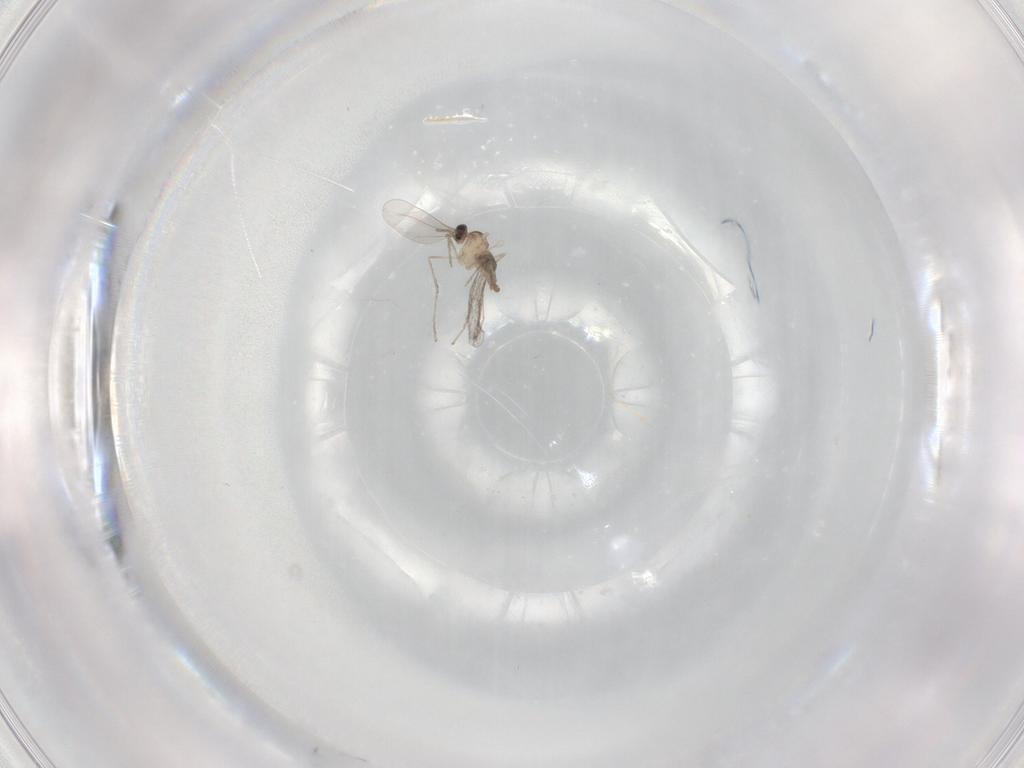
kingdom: Animalia
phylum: Arthropoda
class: Insecta
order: Diptera
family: Cecidomyiidae
